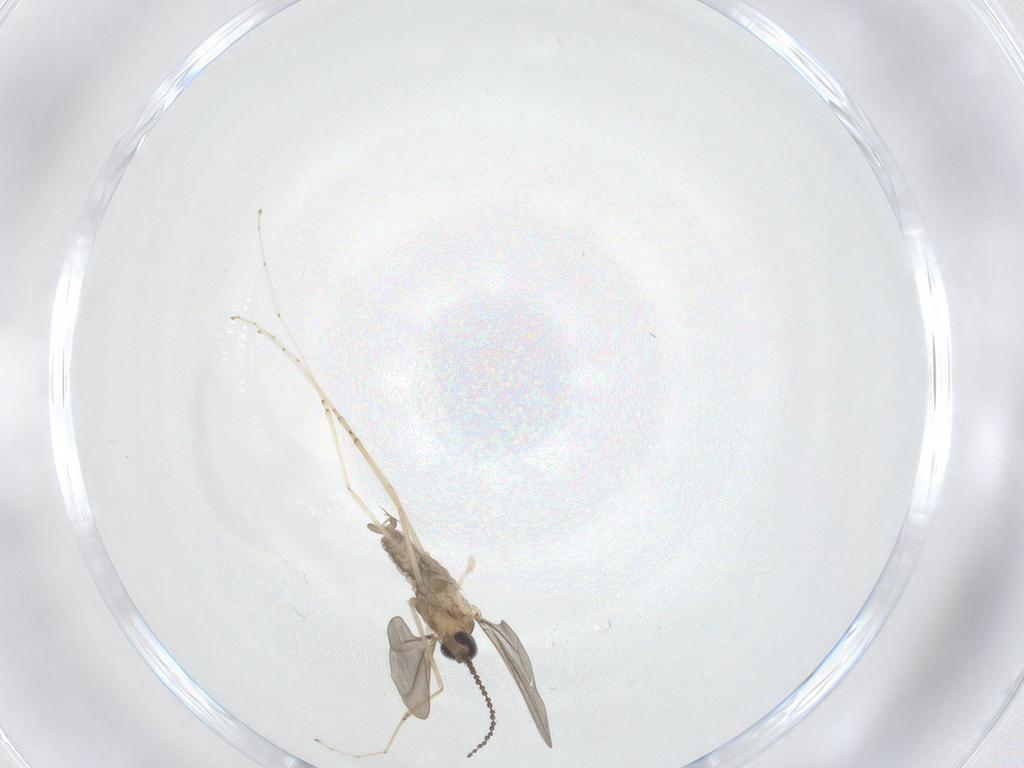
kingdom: Animalia
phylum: Arthropoda
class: Insecta
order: Diptera
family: Cecidomyiidae
